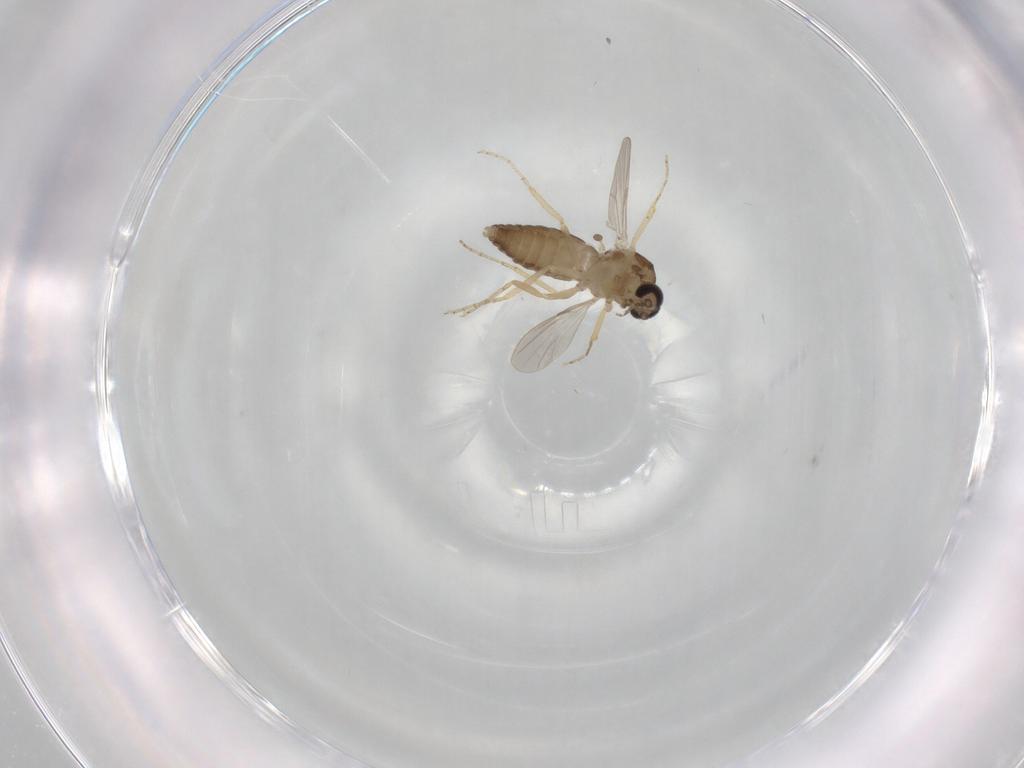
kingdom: Animalia
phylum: Arthropoda
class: Insecta
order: Diptera
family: Ceratopogonidae
